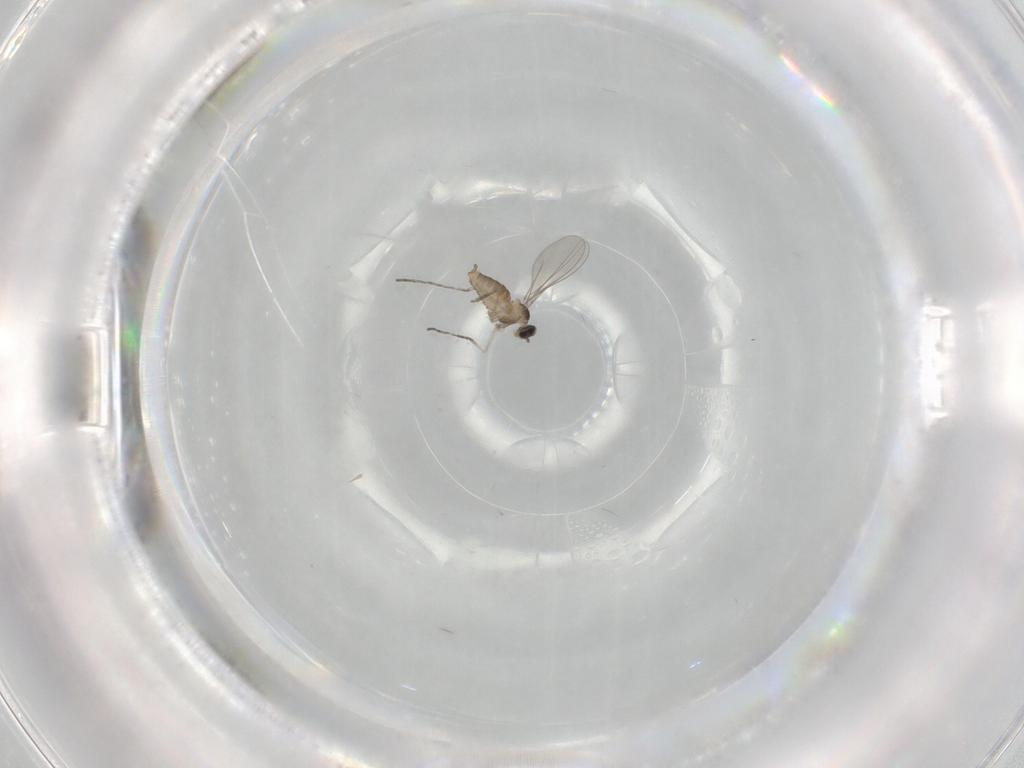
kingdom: Animalia
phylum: Arthropoda
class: Insecta
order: Diptera
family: Cecidomyiidae
